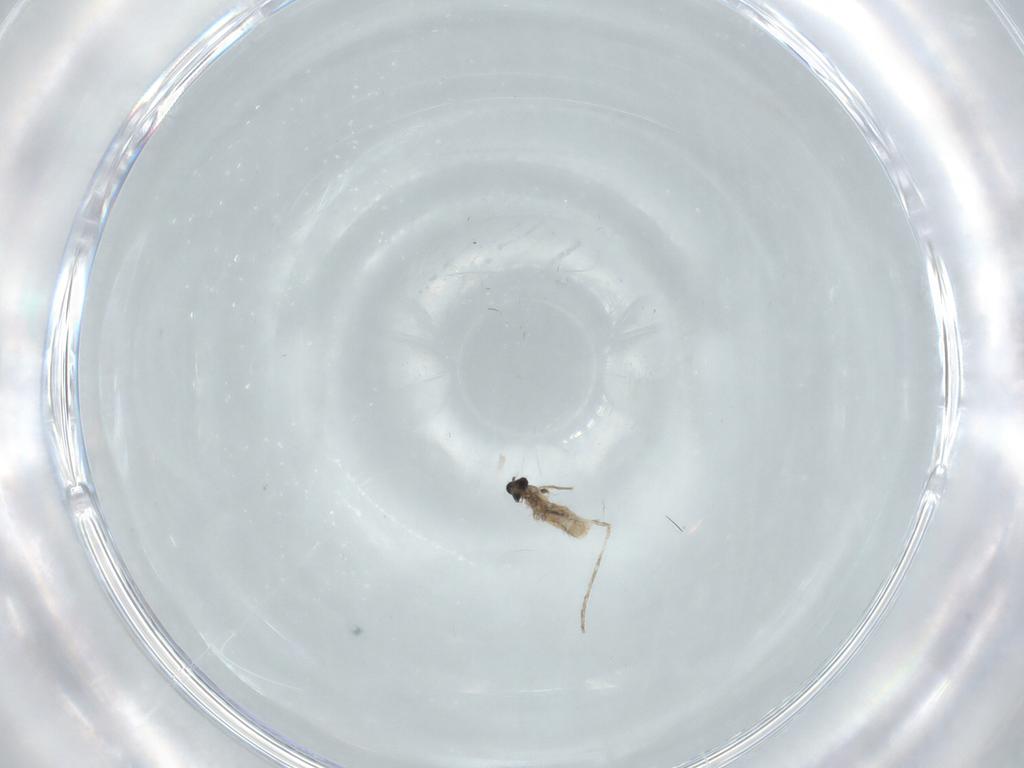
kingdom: Animalia
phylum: Arthropoda
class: Insecta
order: Diptera
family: Cecidomyiidae
